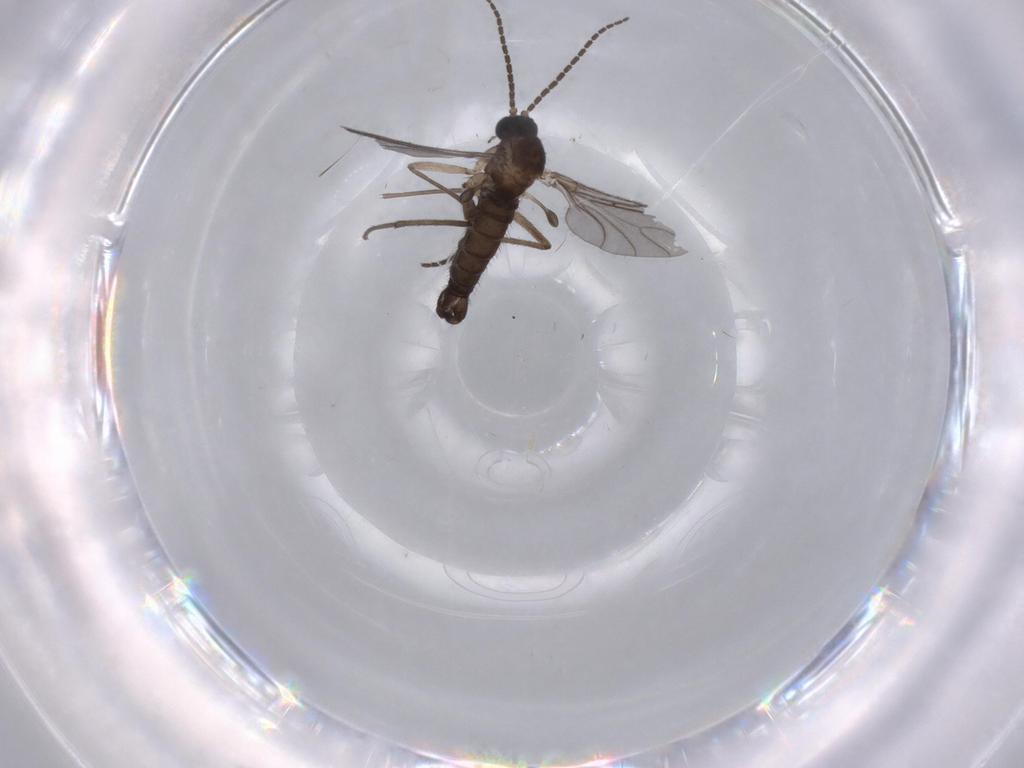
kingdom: Animalia
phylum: Arthropoda
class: Insecta
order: Diptera
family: Sciaridae
